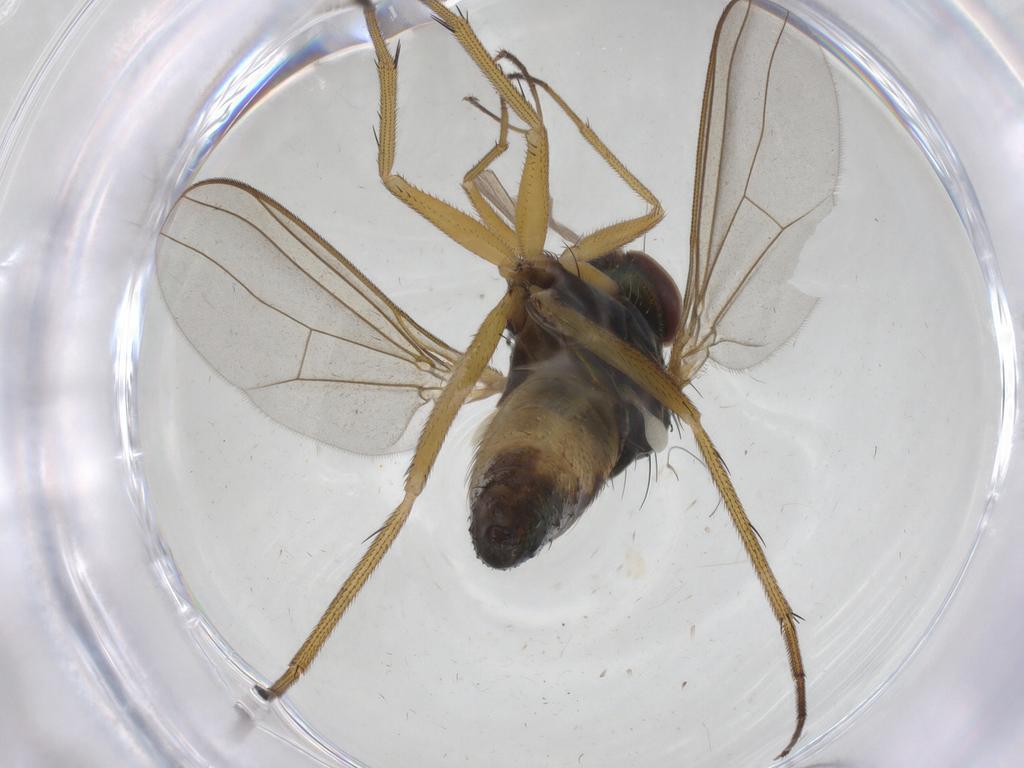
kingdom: Animalia
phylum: Arthropoda
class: Insecta
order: Diptera
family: Dolichopodidae
